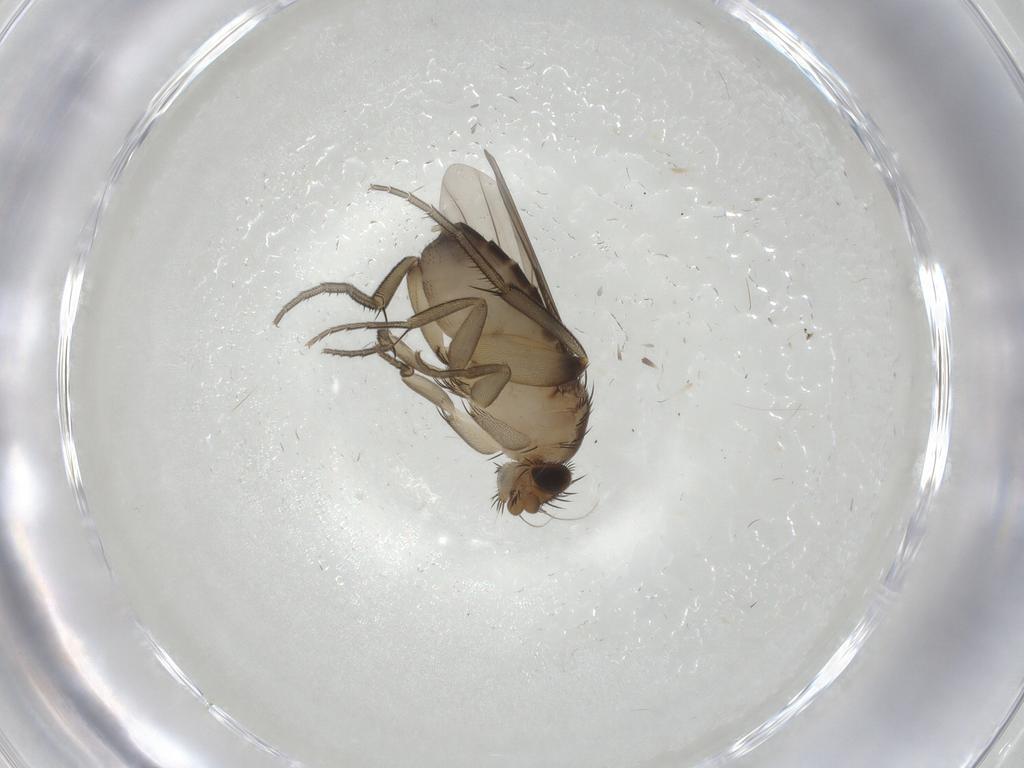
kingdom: Animalia
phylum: Arthropoda
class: Insecta
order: Diptera
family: Phoridae
